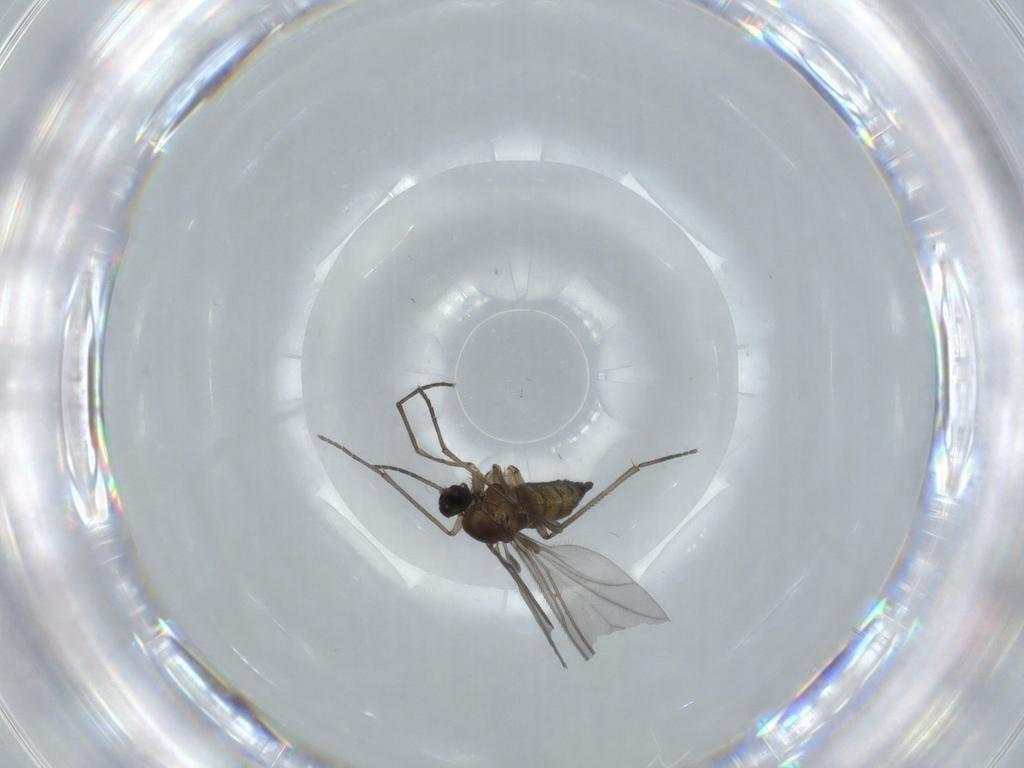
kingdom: Animalia
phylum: Arthropoda
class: Insecta
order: Diptera
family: Sciaridae
